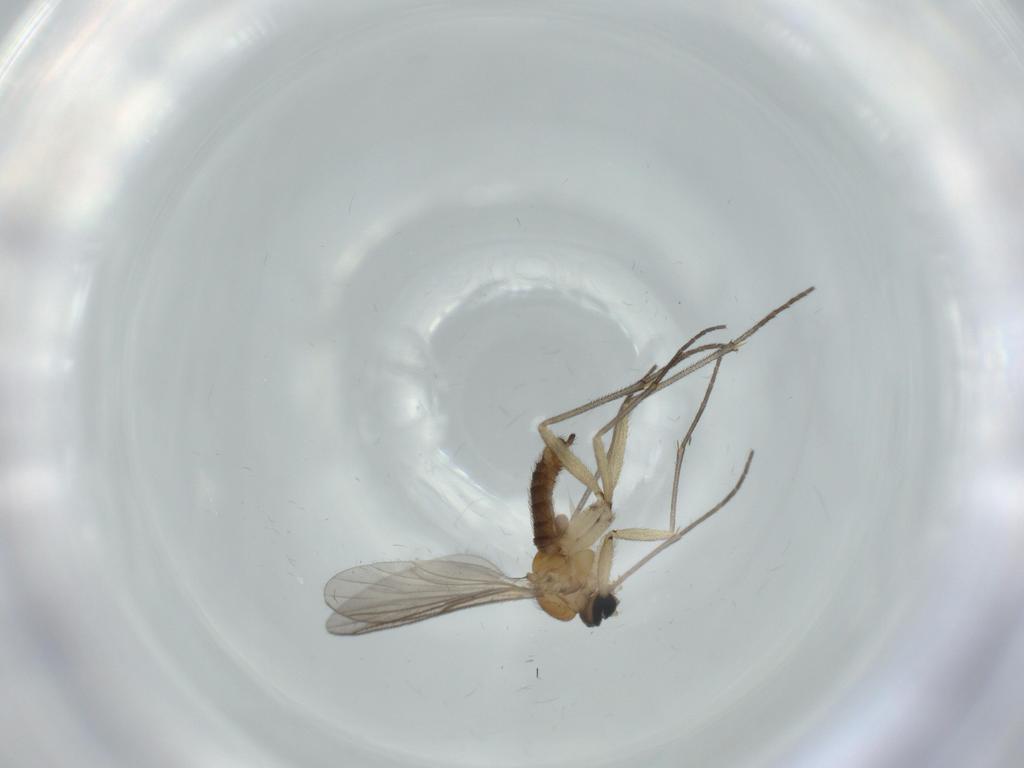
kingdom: Animalia
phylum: Arthropoda
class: Insecta
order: Diptera
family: Sciaridae
